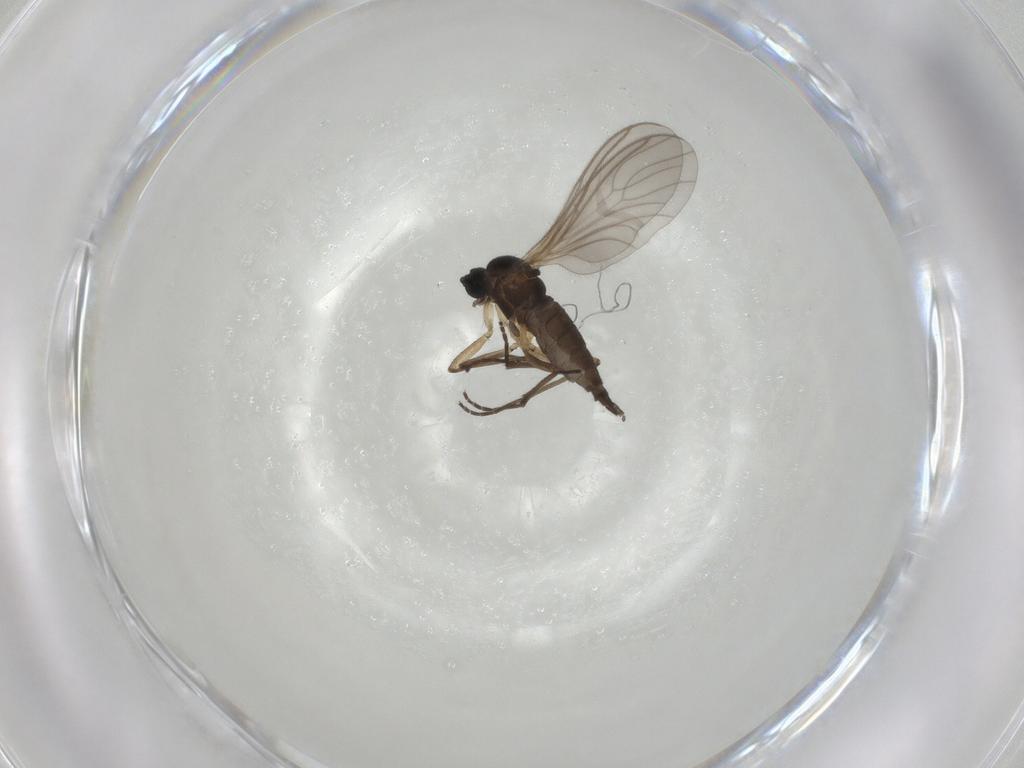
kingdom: Animalia
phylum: Arthropoda
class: Insecta
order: Diptera
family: Sciaridae
